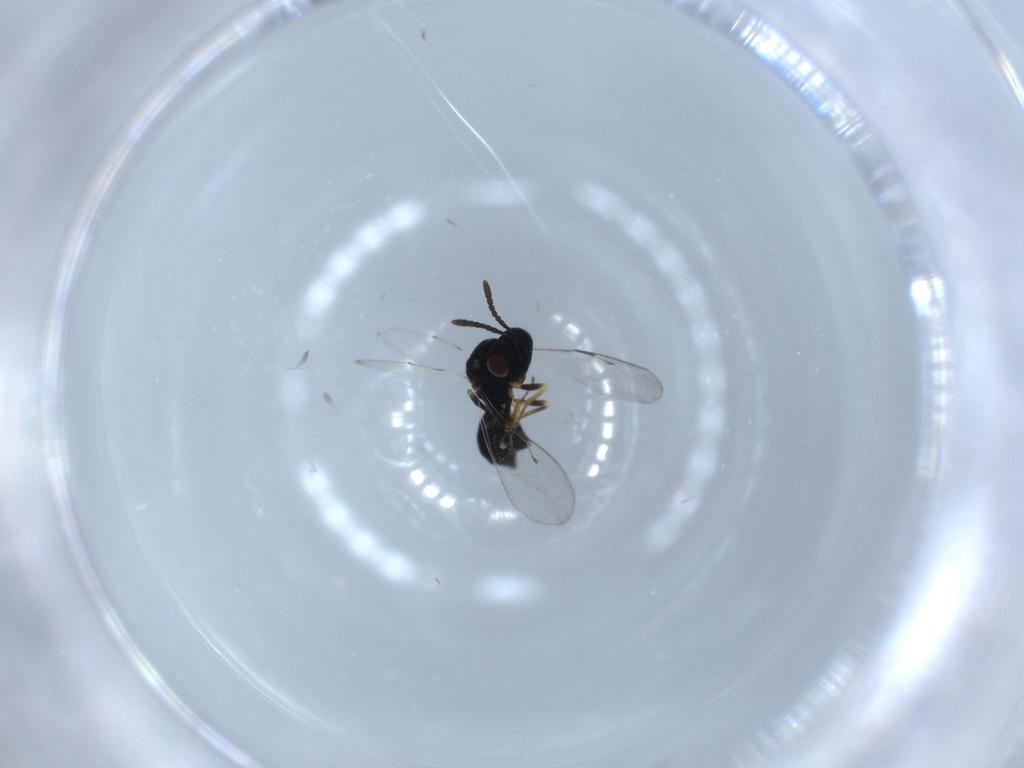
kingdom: Animalia
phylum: Arthropoda
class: Insecta
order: Hymenoptera
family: Pteromalidae
